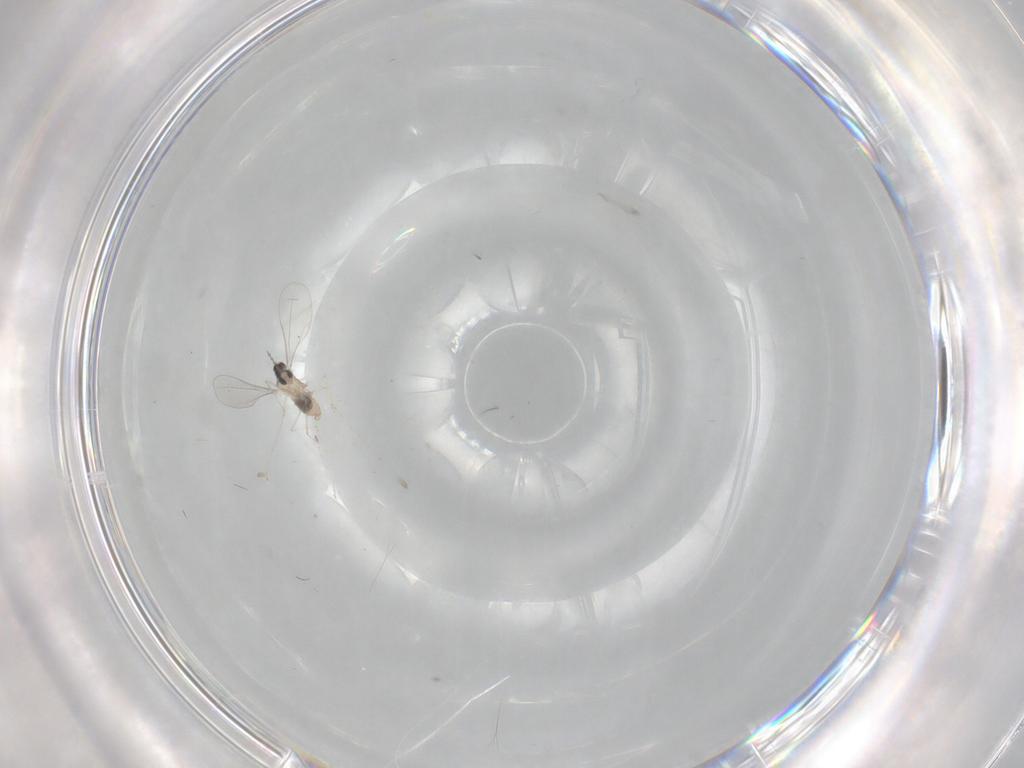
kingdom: Animalia
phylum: Arthropoda
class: Insecta
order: Diptera
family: Cecidomyiidae
